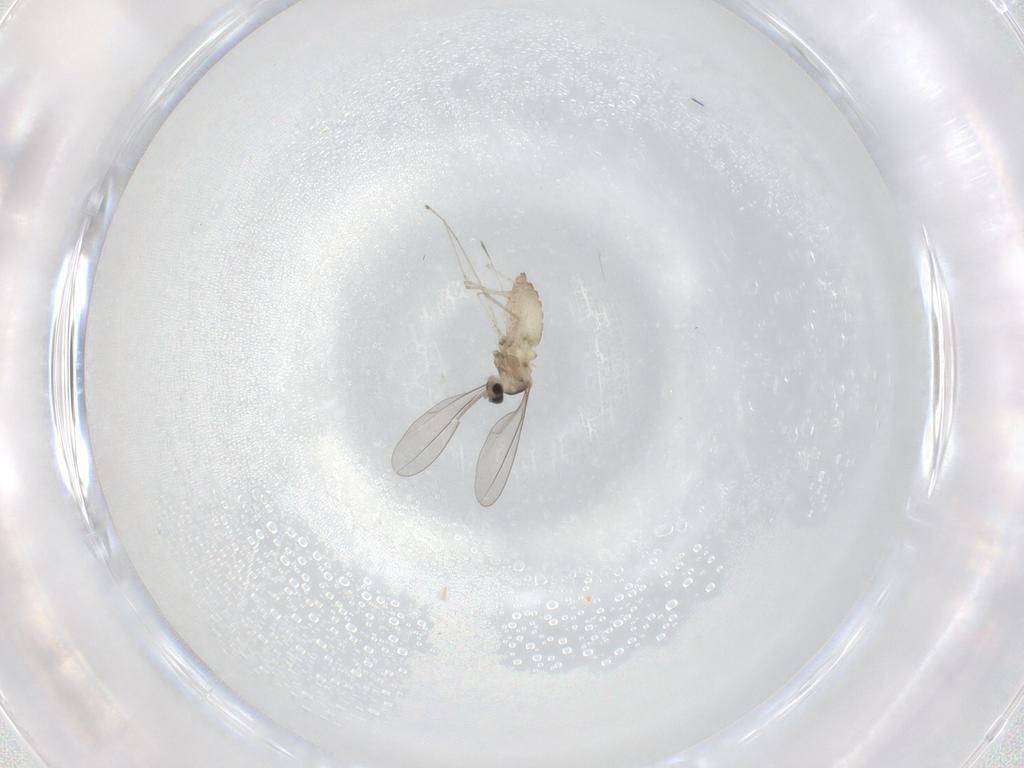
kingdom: Animalia
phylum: Arthropoda
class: Insecta
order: Diptera
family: Cecidomyiidae
